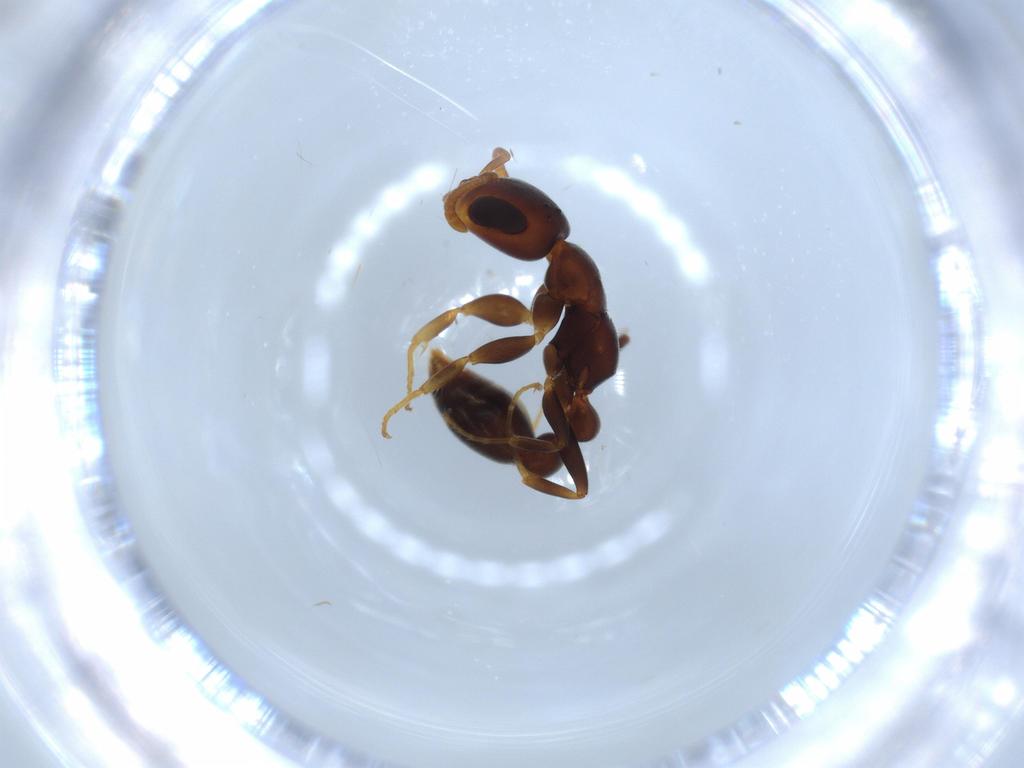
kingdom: Animalia
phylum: Arthropoda
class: Insecta
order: Hymenoptera
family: Formicidae
